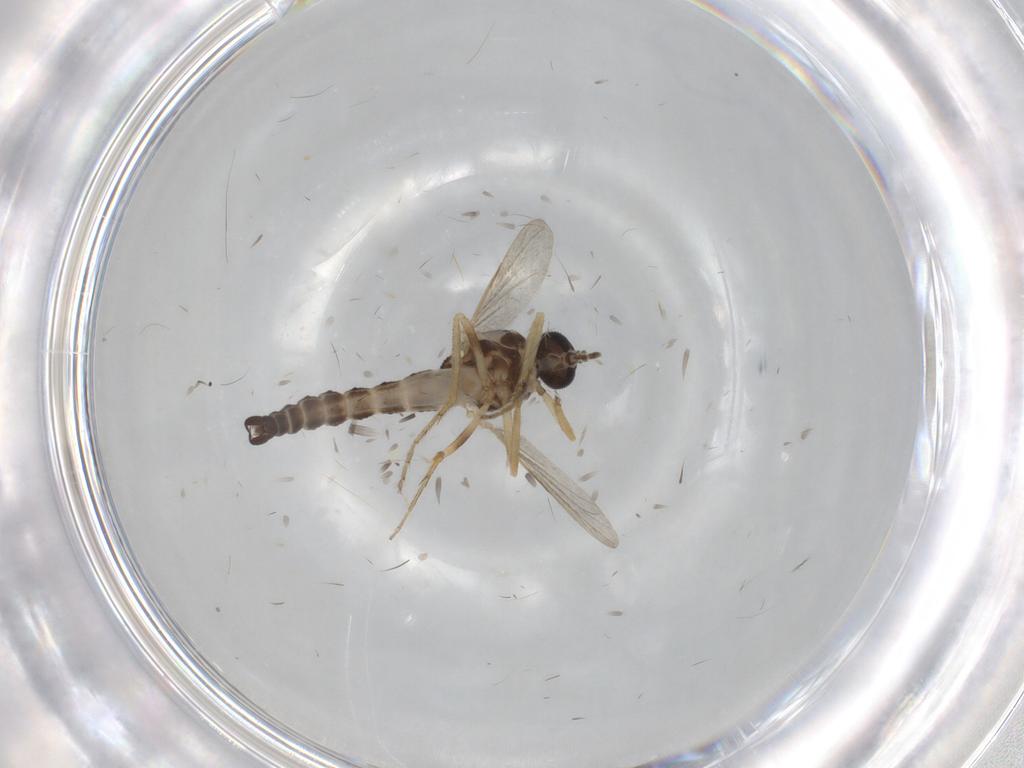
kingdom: Animalia
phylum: Arthropoda
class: Insecta
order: Diptera
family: Ceratopogonidae
